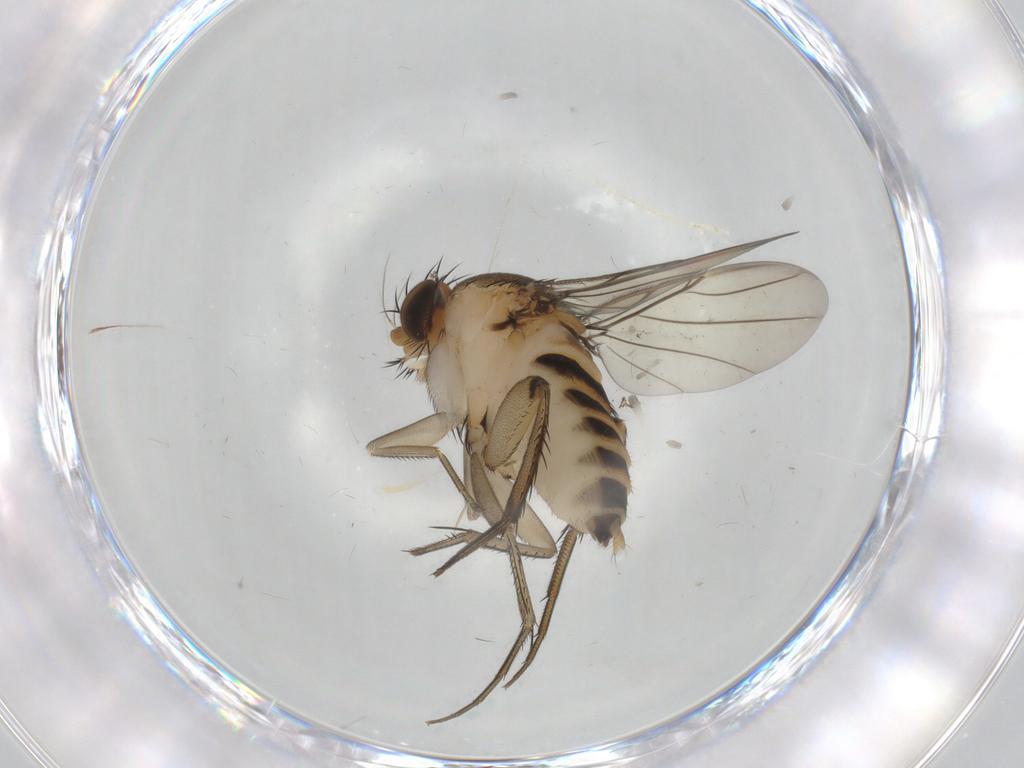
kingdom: Animalia
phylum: Arthropoda
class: Insecta
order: Diptera
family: Phoridae
